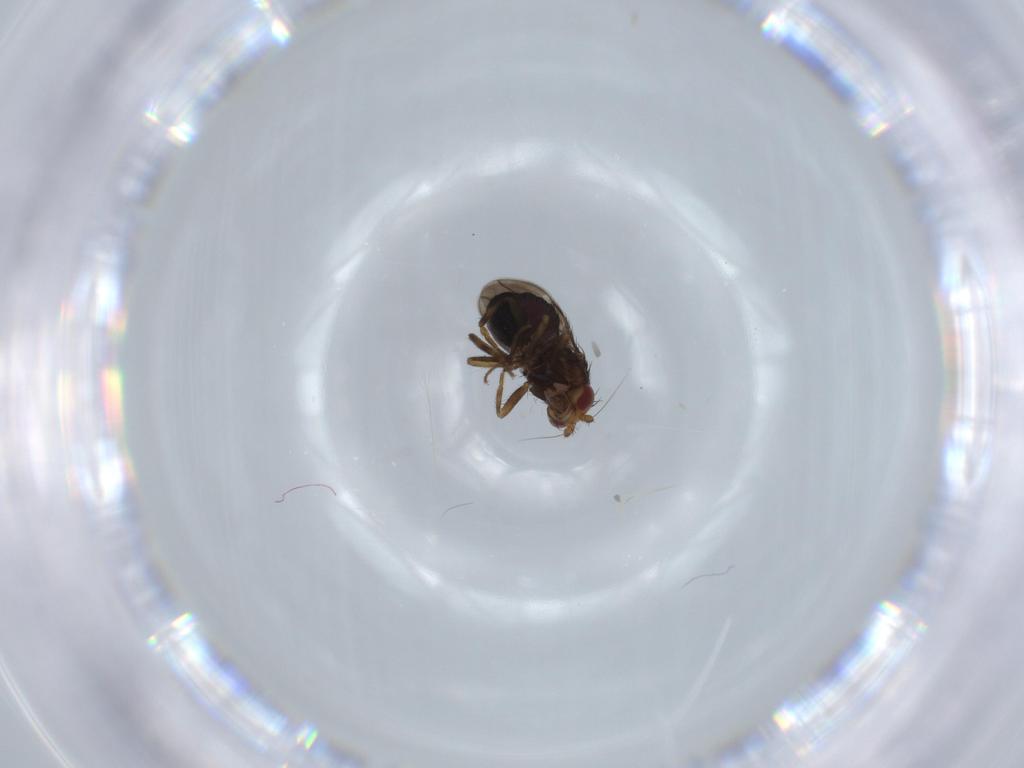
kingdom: Animalia
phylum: Arthropoda
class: Insecta
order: Diptera
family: Sphaeroceridae
